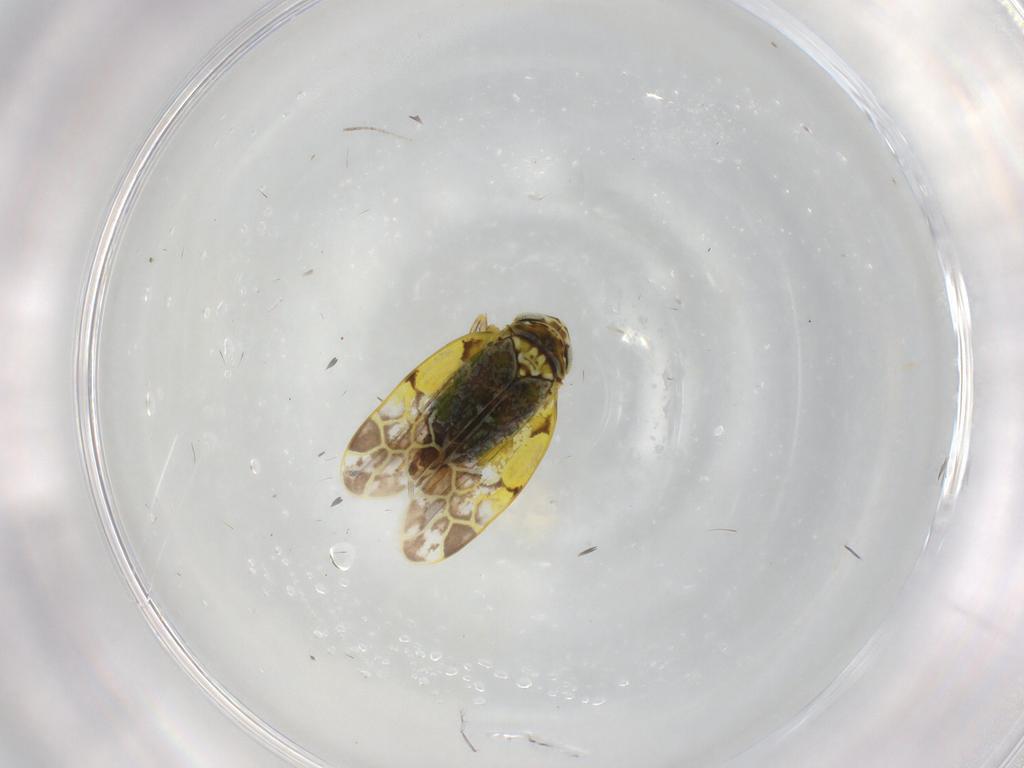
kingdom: Animalia
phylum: Arthropoda
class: Insecta
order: Hemiptera
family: Cicadellidae
